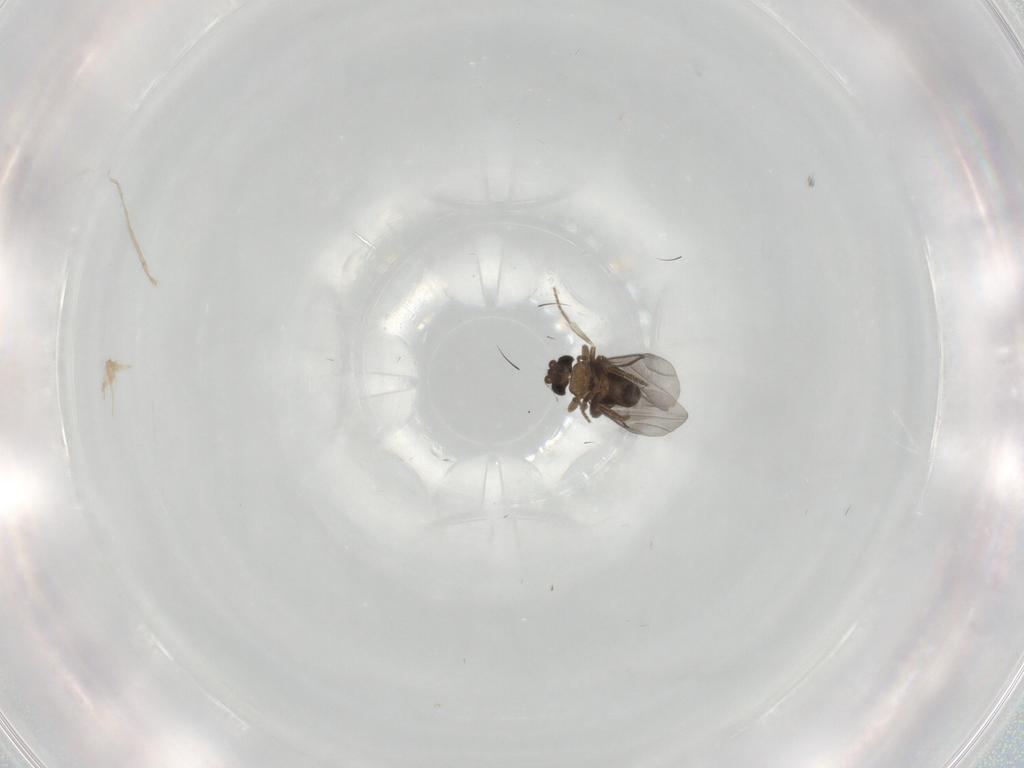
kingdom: Animalia
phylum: Arthropoda
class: Insecta
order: Diptera
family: Dolichopodidae
